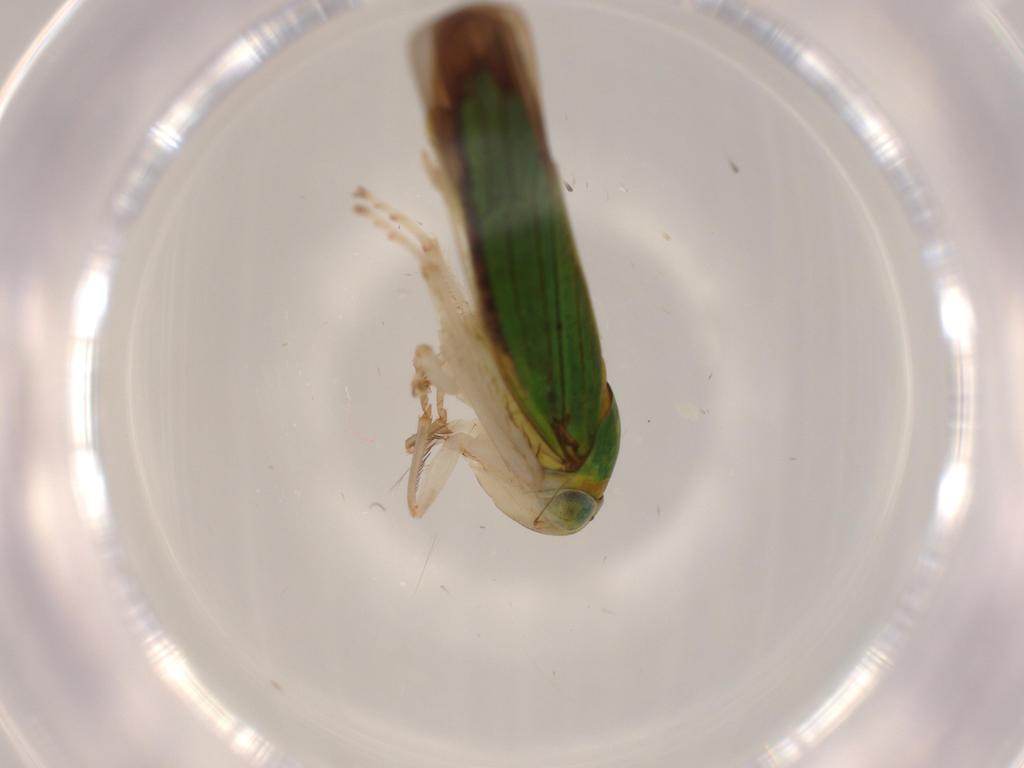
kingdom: Animalia
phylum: Arthropoda
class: Insecta
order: Hemiptera
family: Cicadellidae
